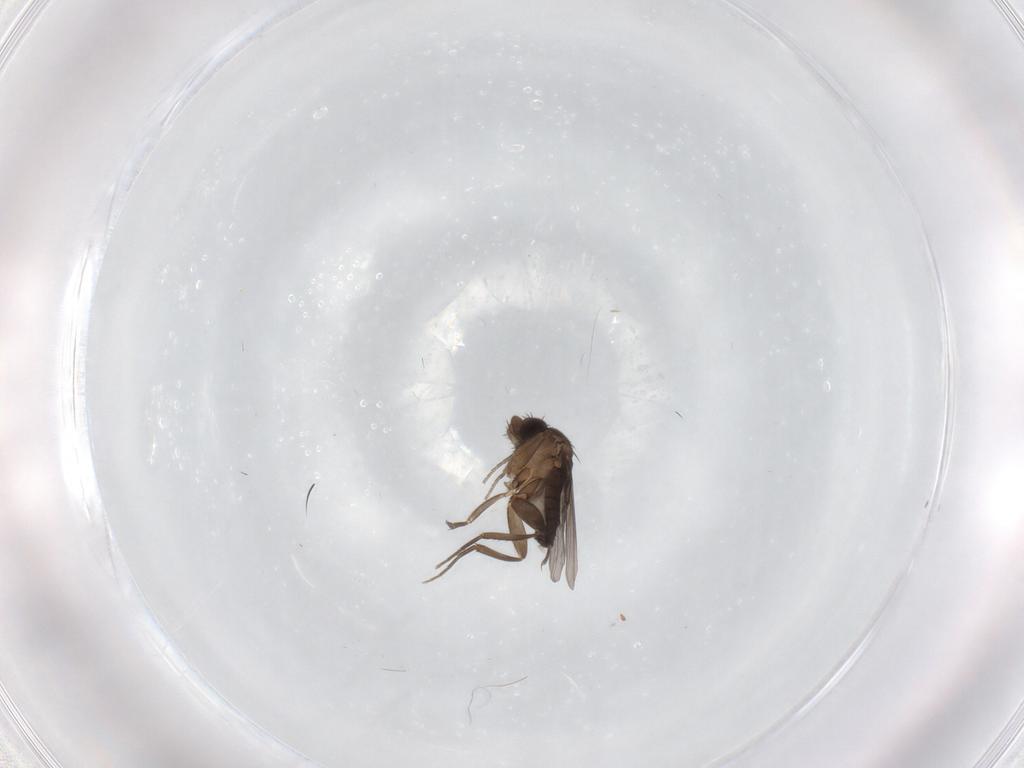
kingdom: Animalia
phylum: Arthropoda
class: Insecta
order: Diptera
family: Phoridae
